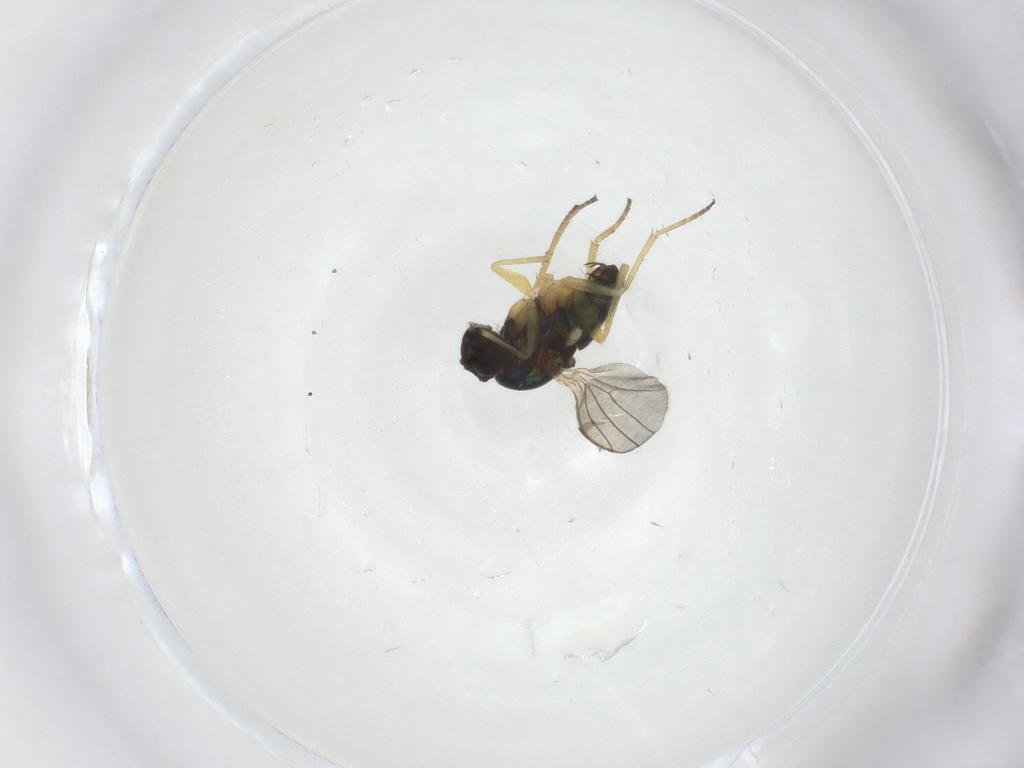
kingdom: Animalia
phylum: Arthropoda
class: Insecta
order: Diptera
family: Dolichopodidae
